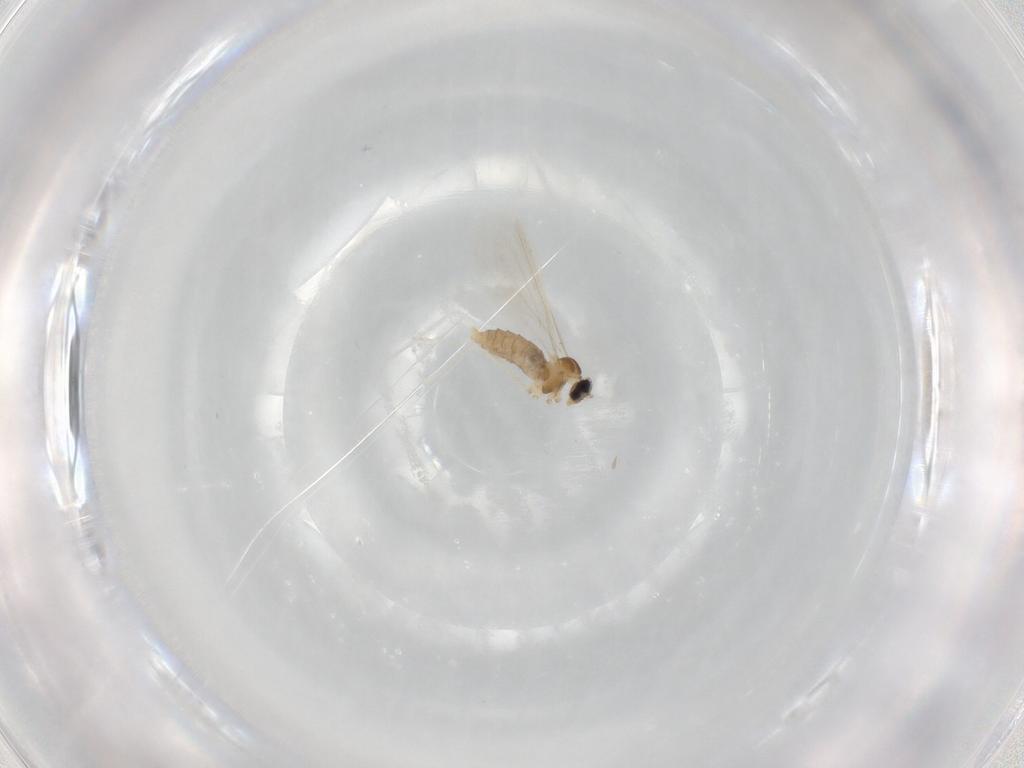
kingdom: Animalia
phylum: Arthropoda
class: Insecta
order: Diptera
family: Cecidomyiidae
